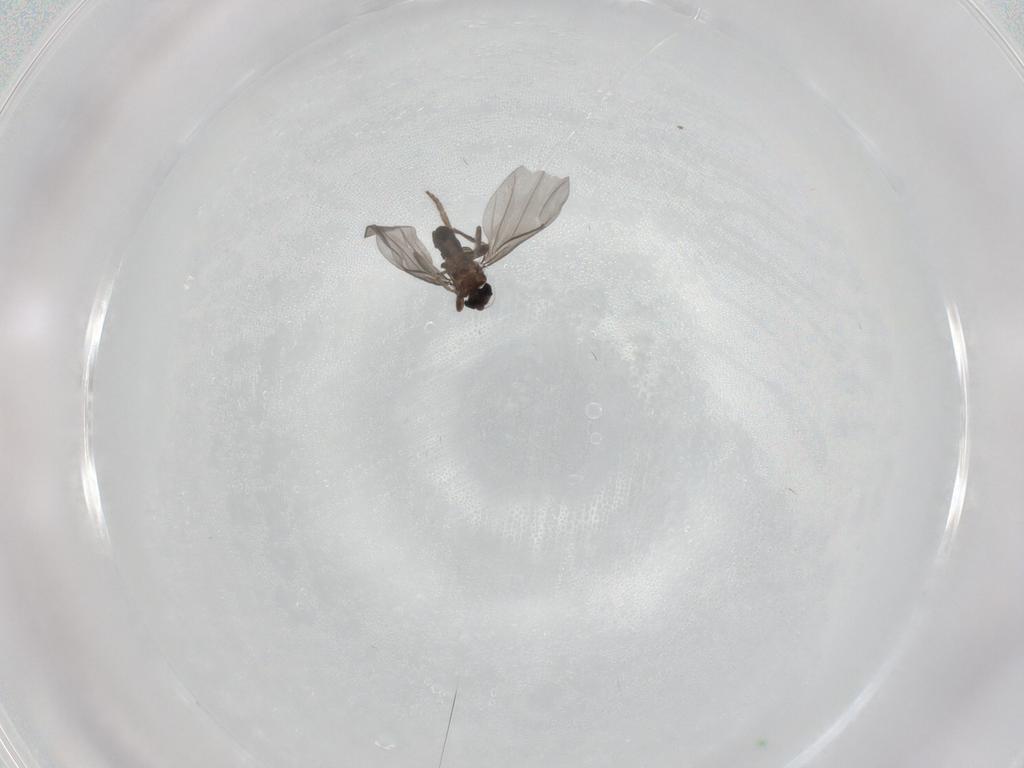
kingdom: Animalia
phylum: Arthropoda
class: Insecta
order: Diptera
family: Phoridae
